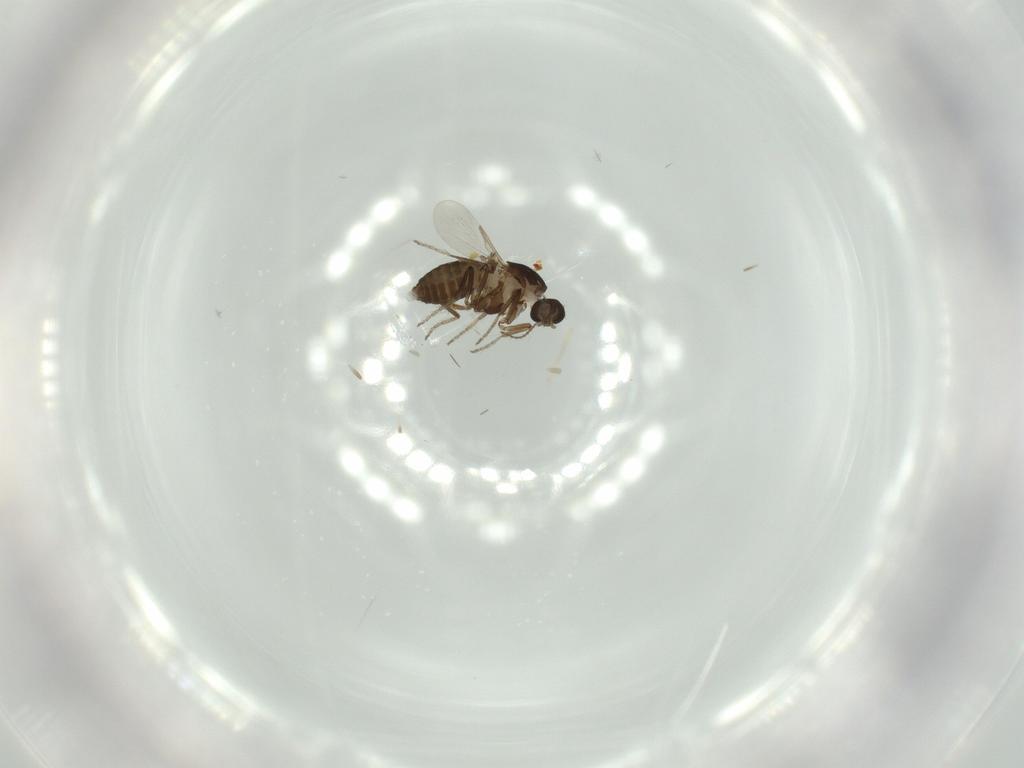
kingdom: Animalia
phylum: Arthropoda
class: Insecta
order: Diptera
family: Ceratopogonidae
